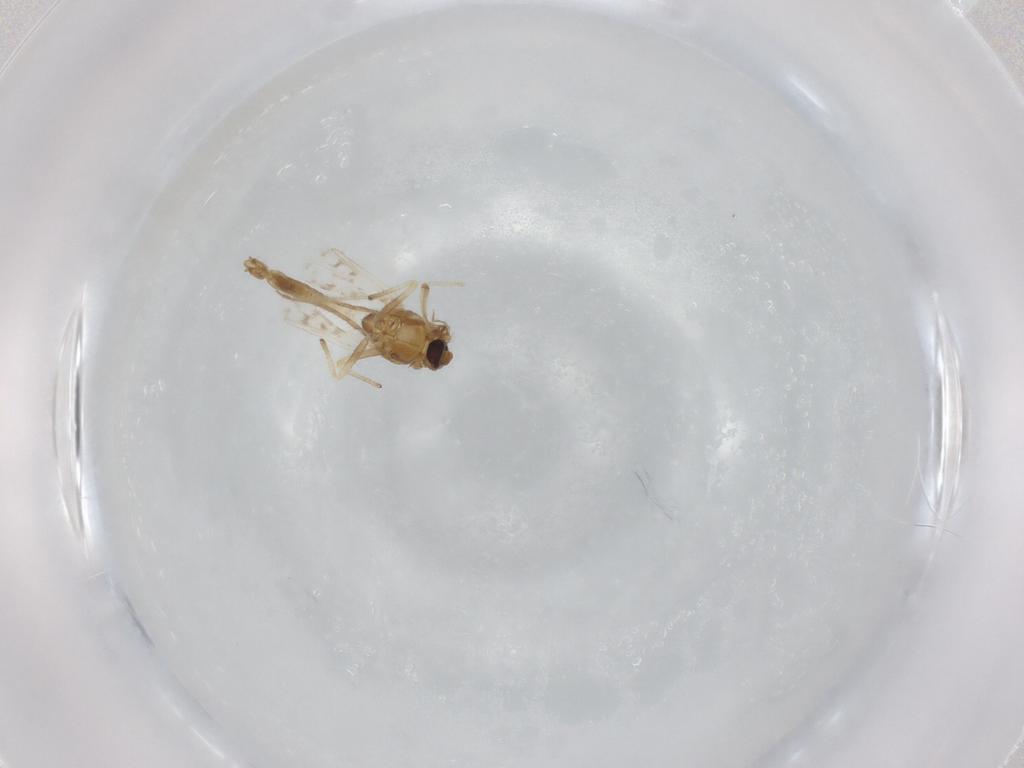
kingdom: Animalia
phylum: Arthropoda
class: Insecta
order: Diptera
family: Chironomidae
